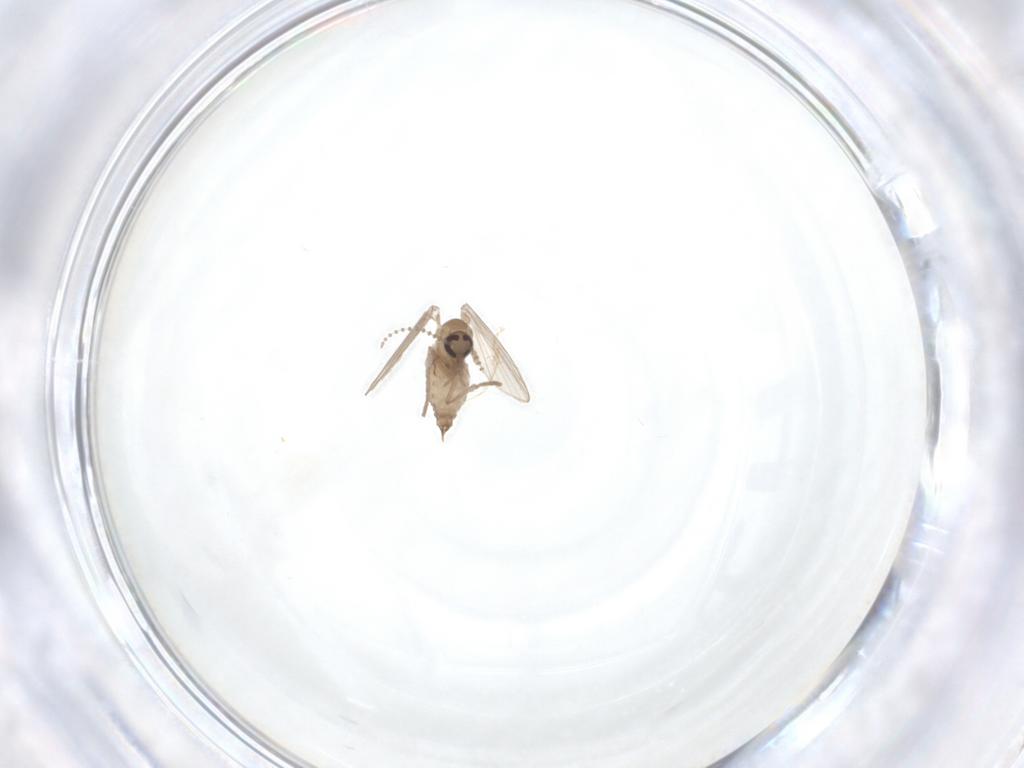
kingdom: Animalia
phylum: Arthropoda
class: Insecta
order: Diptera
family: Psychodidae
